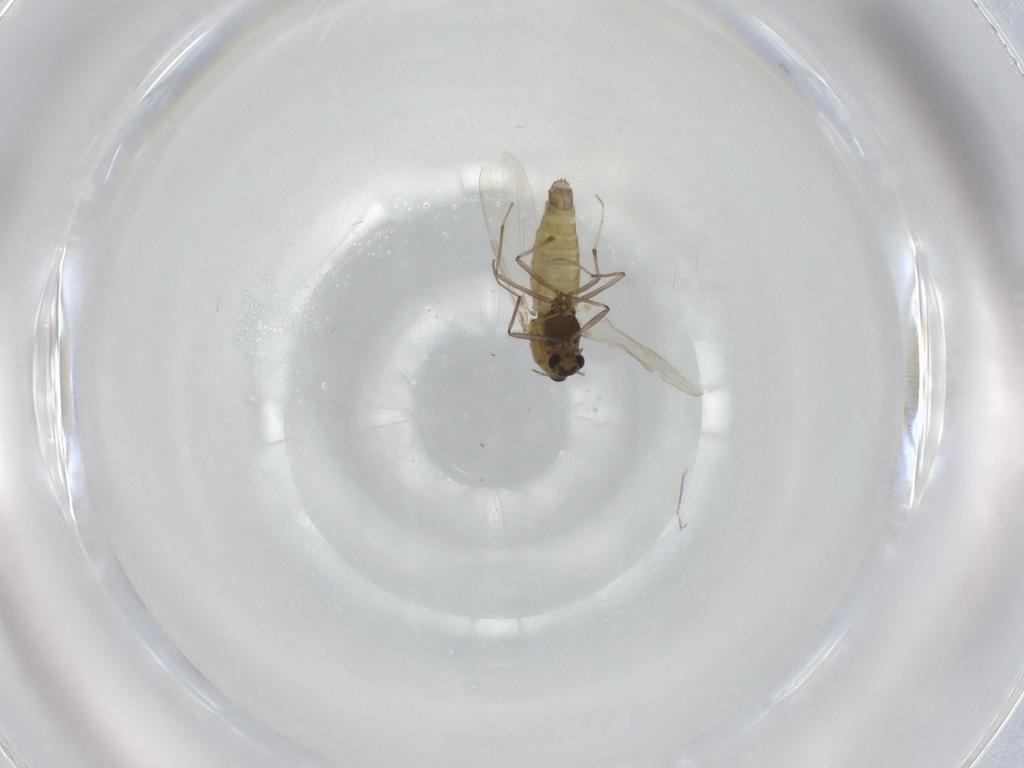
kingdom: Animalia
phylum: Arthropoda
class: Insecta
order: Diptera
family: Chironomidae
